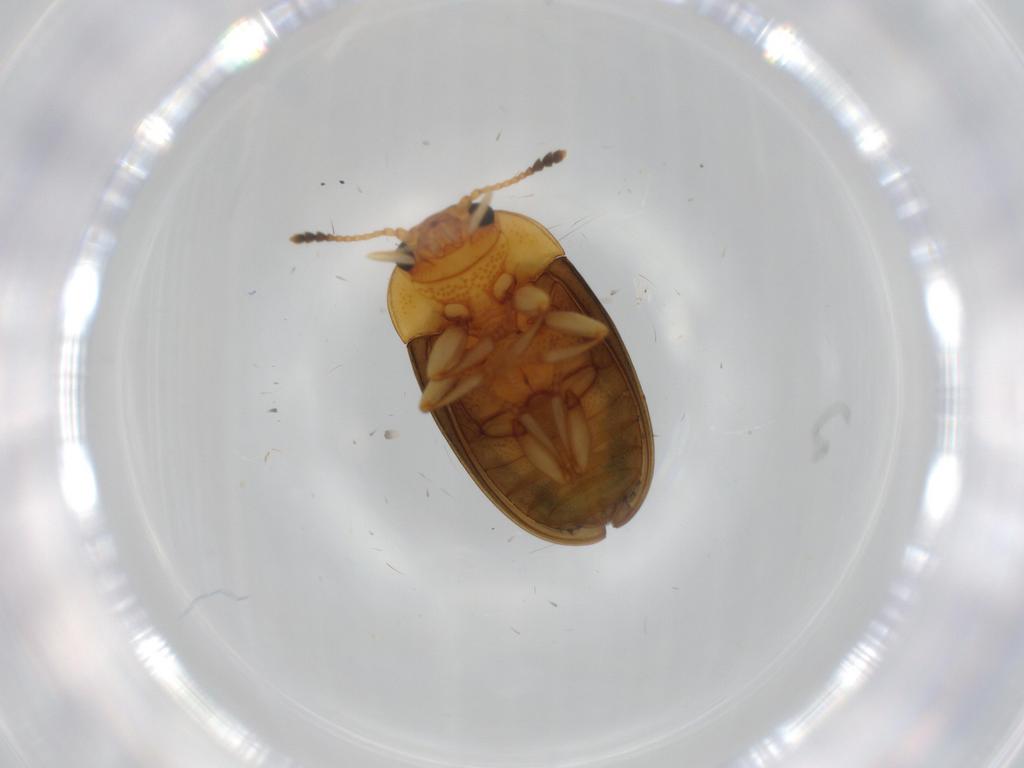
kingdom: Animalia
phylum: Arthropoda
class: Insecta
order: Coleoptera
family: Erotylidae
